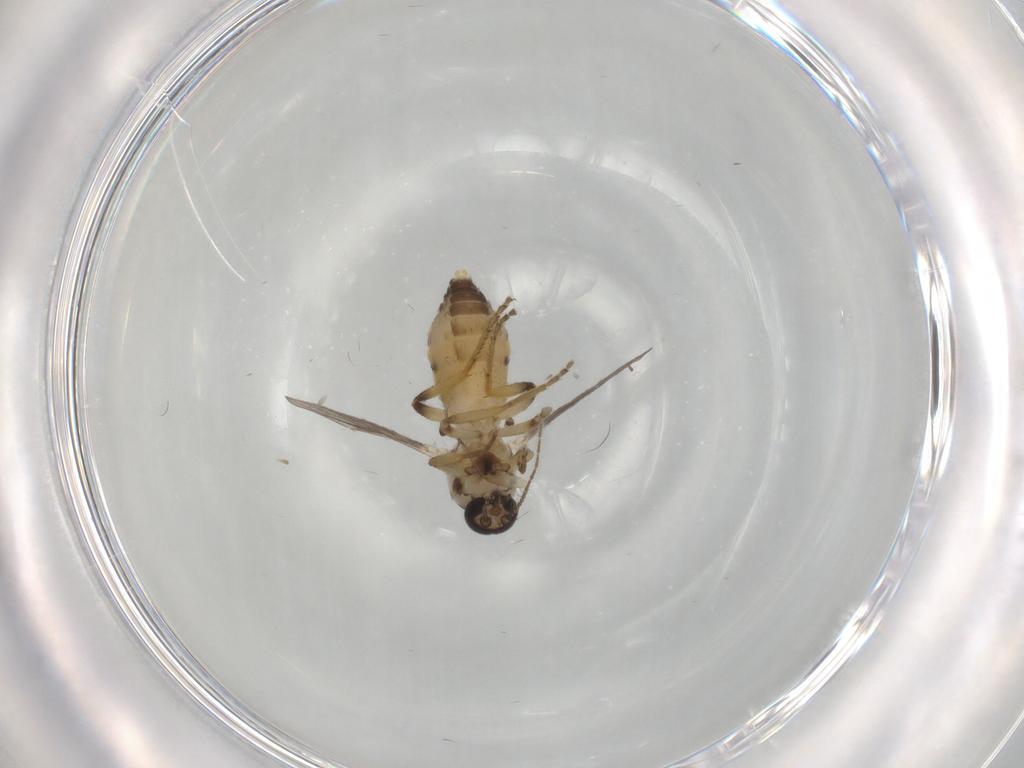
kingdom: Animalia
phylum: Arthropoda
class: Insecta
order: Diptera
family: Ceratopogonidae
